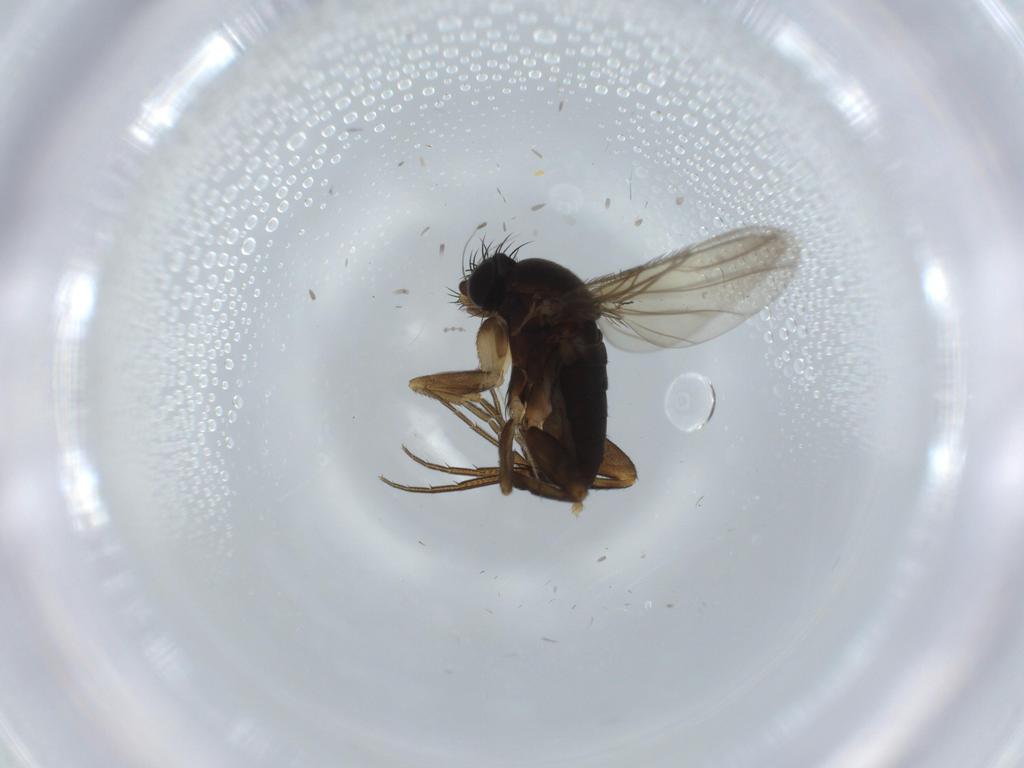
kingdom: Animalia
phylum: Arthropoda
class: Insecta
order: Diptera
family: Phoridae
